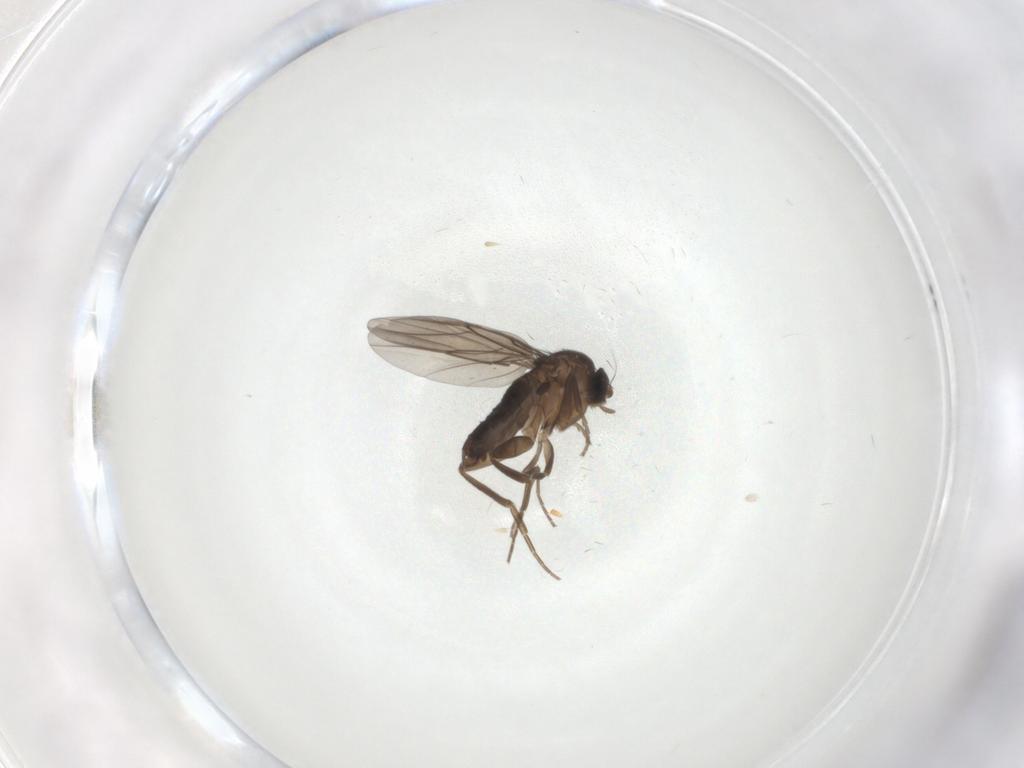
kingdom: Animalia
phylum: Arthropoda
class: Insecta
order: Diptera
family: Phoridae
